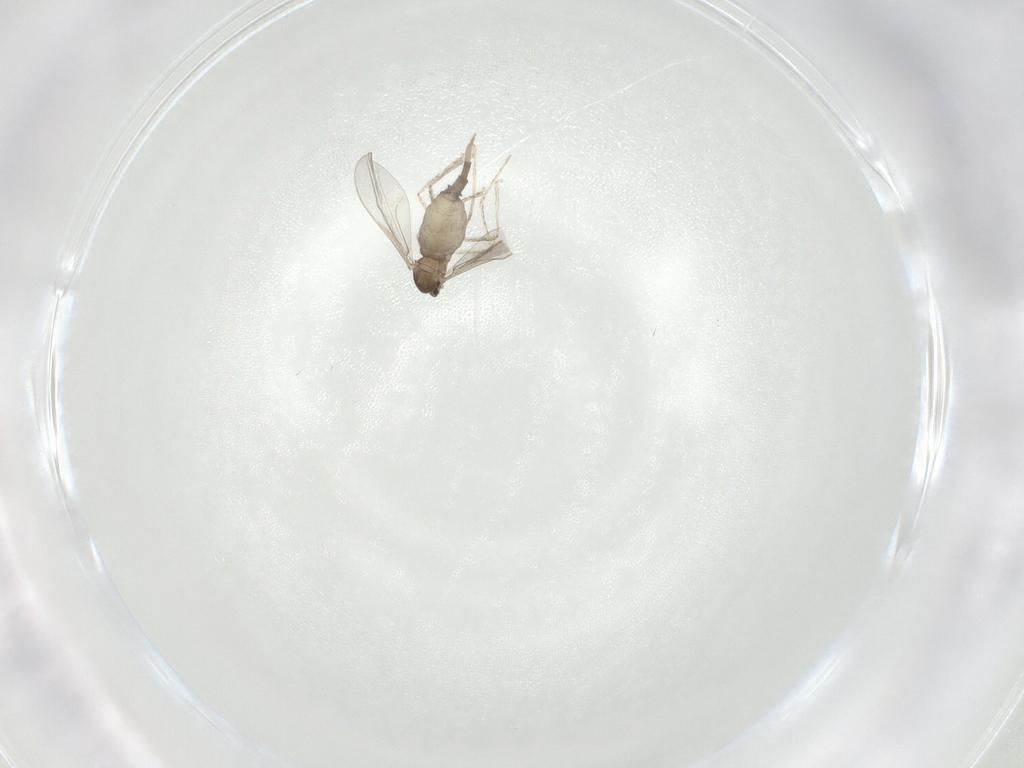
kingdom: Animalia
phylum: Arthropoda
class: Insecta
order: Diptera
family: Cecidomyiidae
